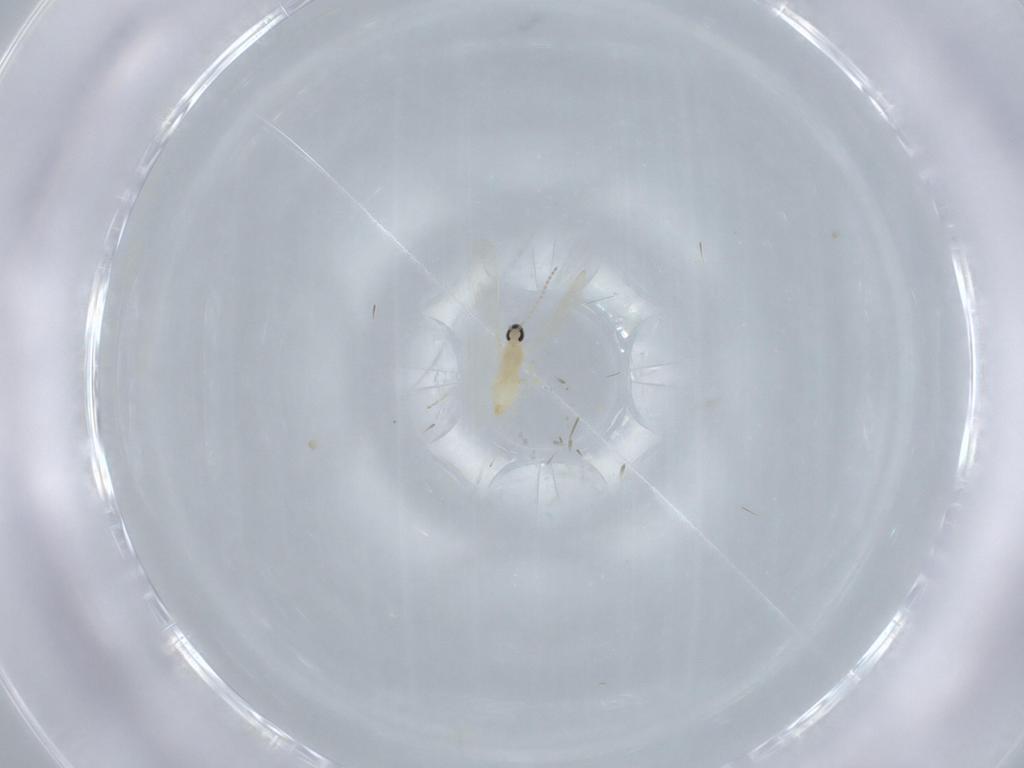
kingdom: Animalia
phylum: Arthropoda
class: Insecta
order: Diptera
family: Cecidomyiidae
